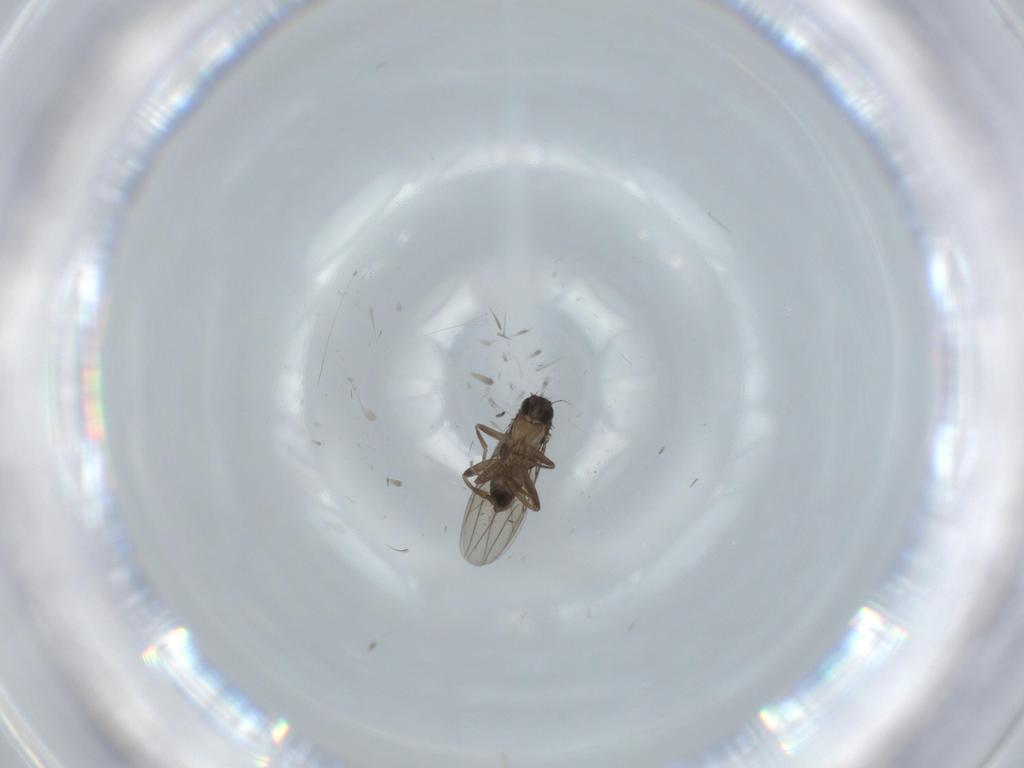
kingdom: Animalia
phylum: Arthropoda
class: Insecta
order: Diptera
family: Phoridae
